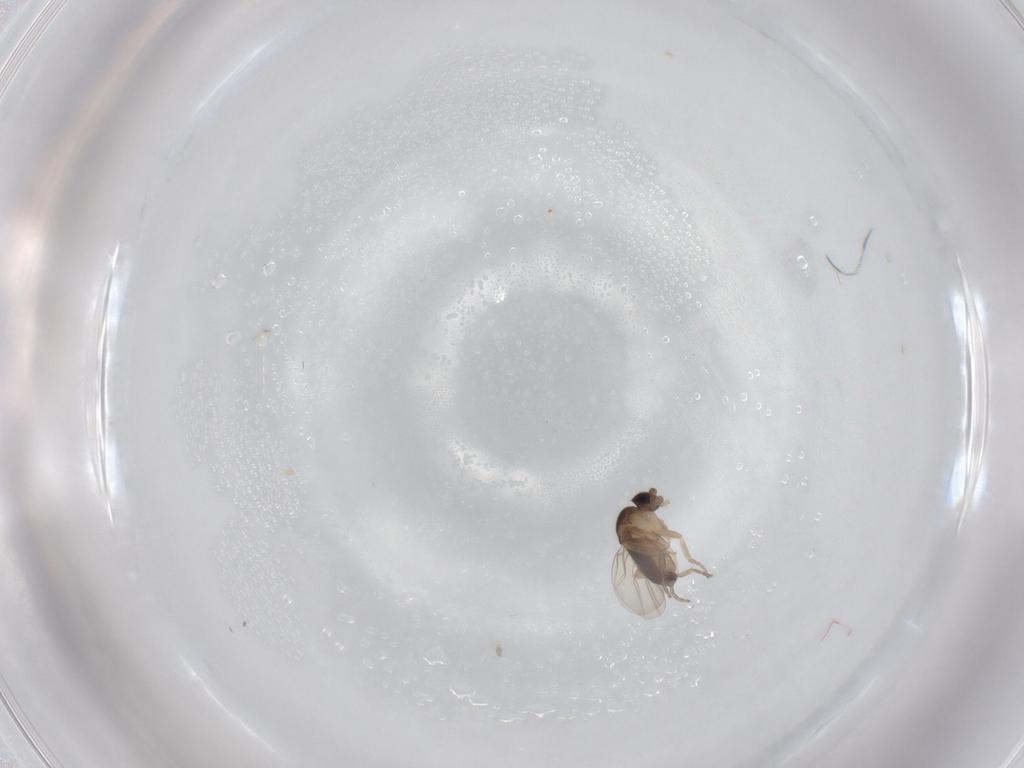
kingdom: Animalia
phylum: Arthropoda
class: Insecta
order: Diptera
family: Phoridae
